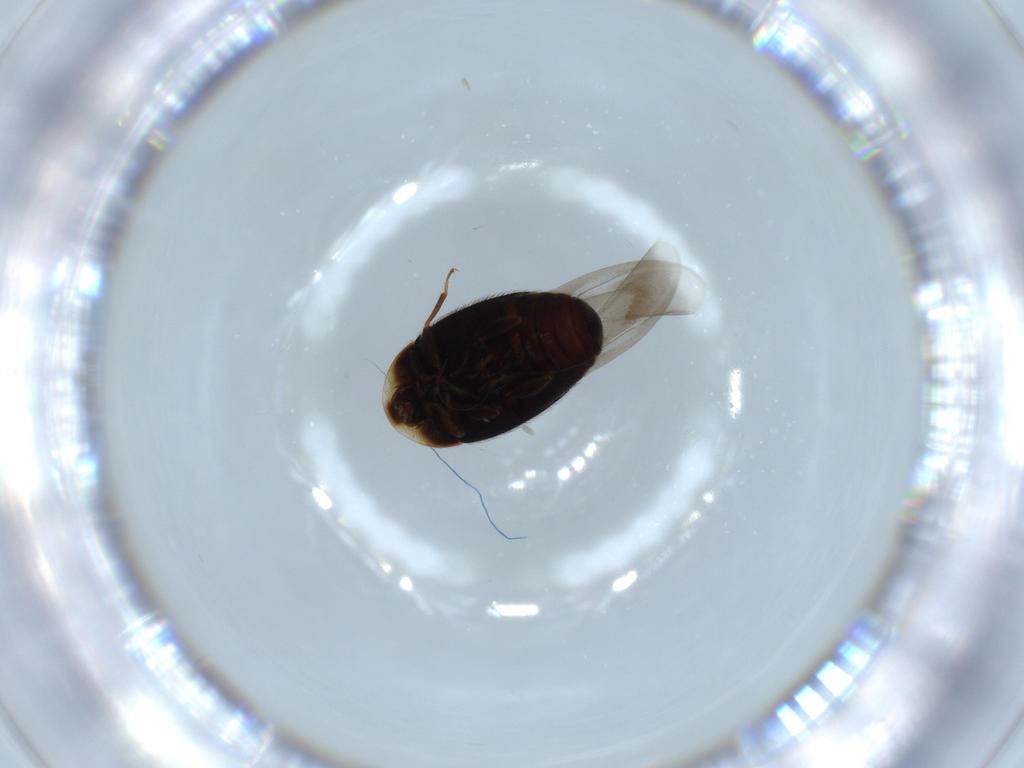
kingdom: Animalia
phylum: Arthropoda
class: Insecta
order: Coleoptera
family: Corylophidae
